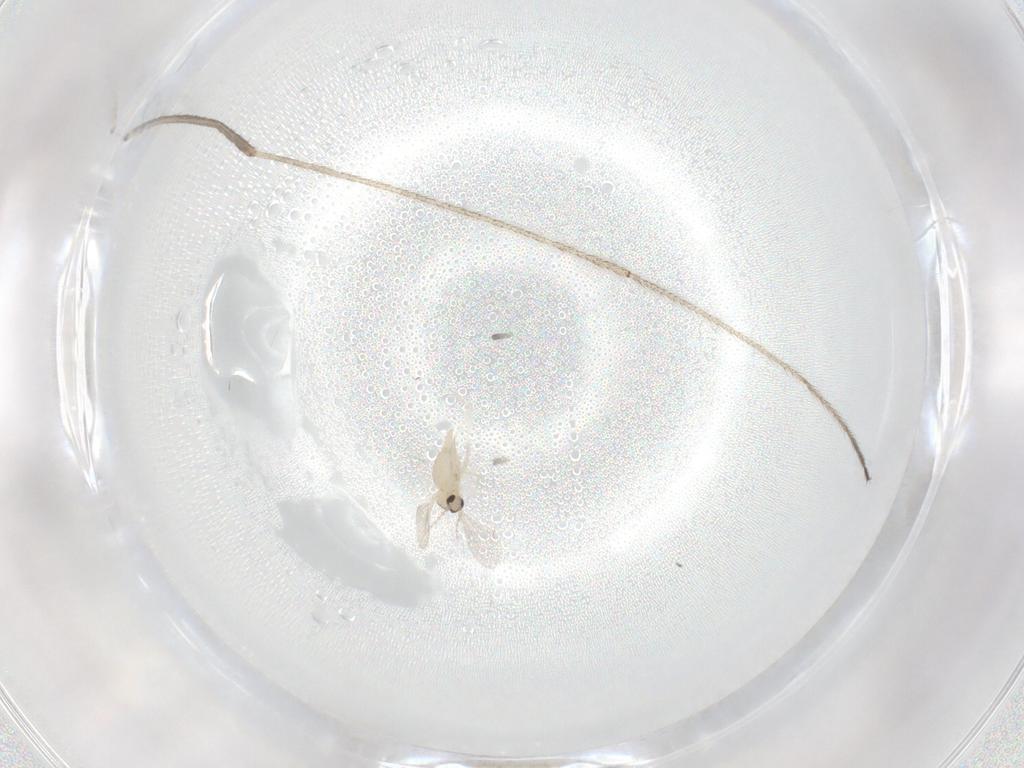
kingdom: Animalia
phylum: Arthropoda
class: Insecta
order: Diptera
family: Cecidomyiidae
